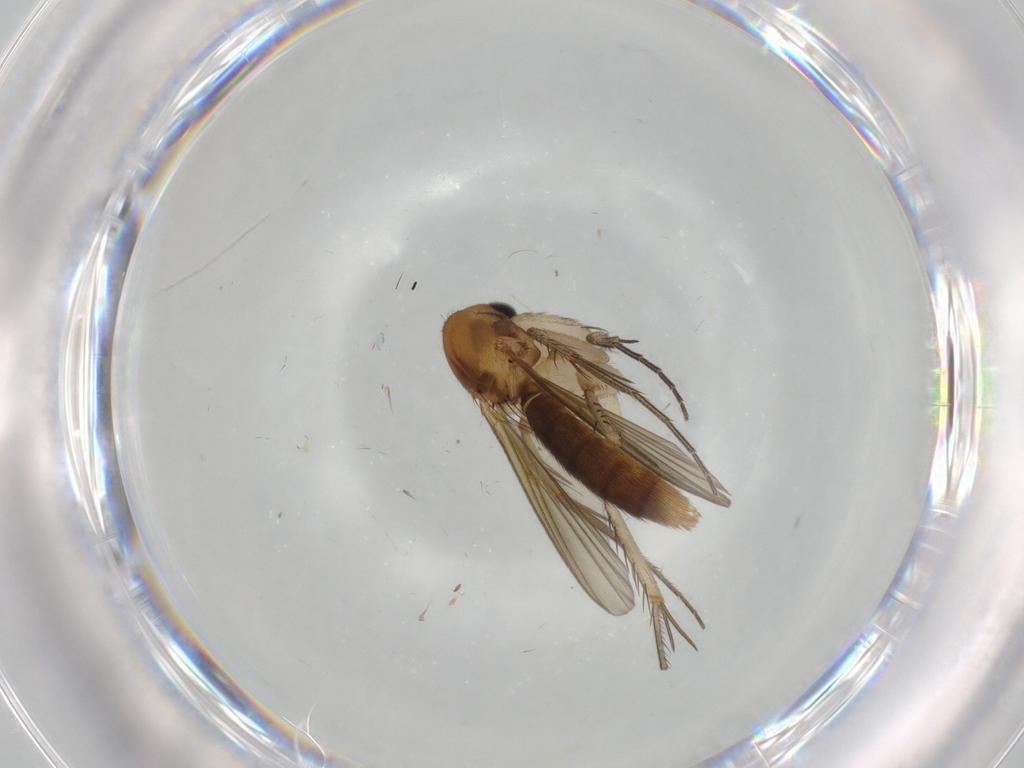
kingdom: Animalia
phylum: Arthropoda
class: Insecta
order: Diptera
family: Mycetophilidae
